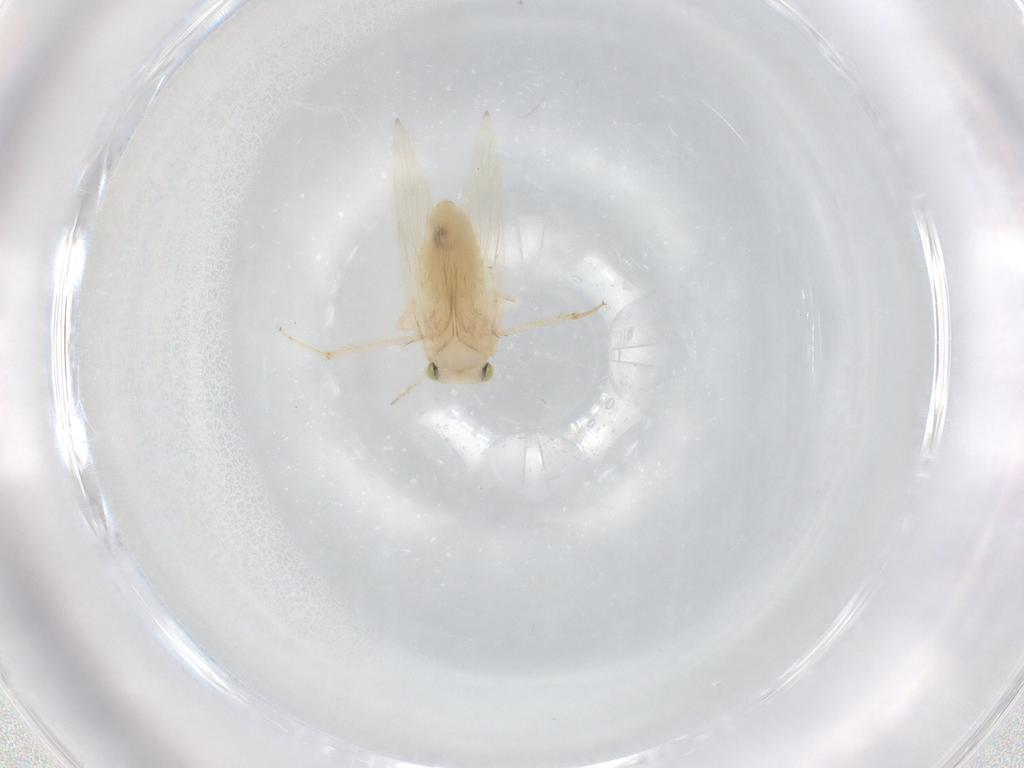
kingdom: Animalia
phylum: Arthropoda
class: Insecta
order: Psocodea
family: Lepidopsocidae
